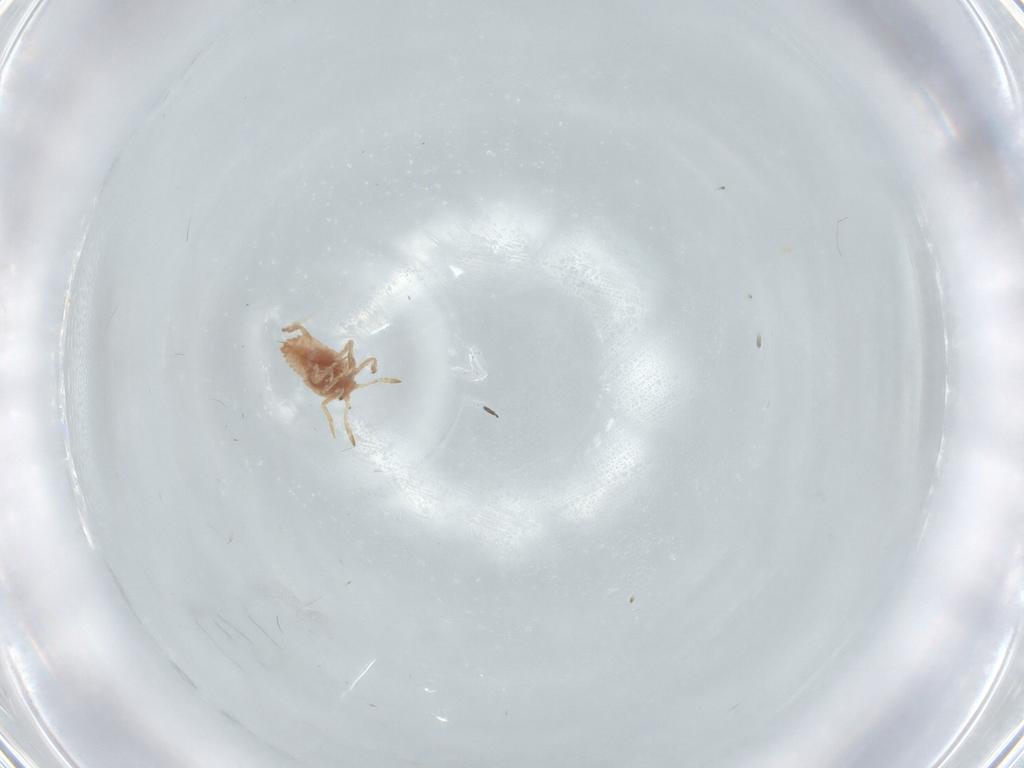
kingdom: Animalia
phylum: Arthropoda
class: Insecta
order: Hemiptera
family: Coccoidea_incertae_sedis
